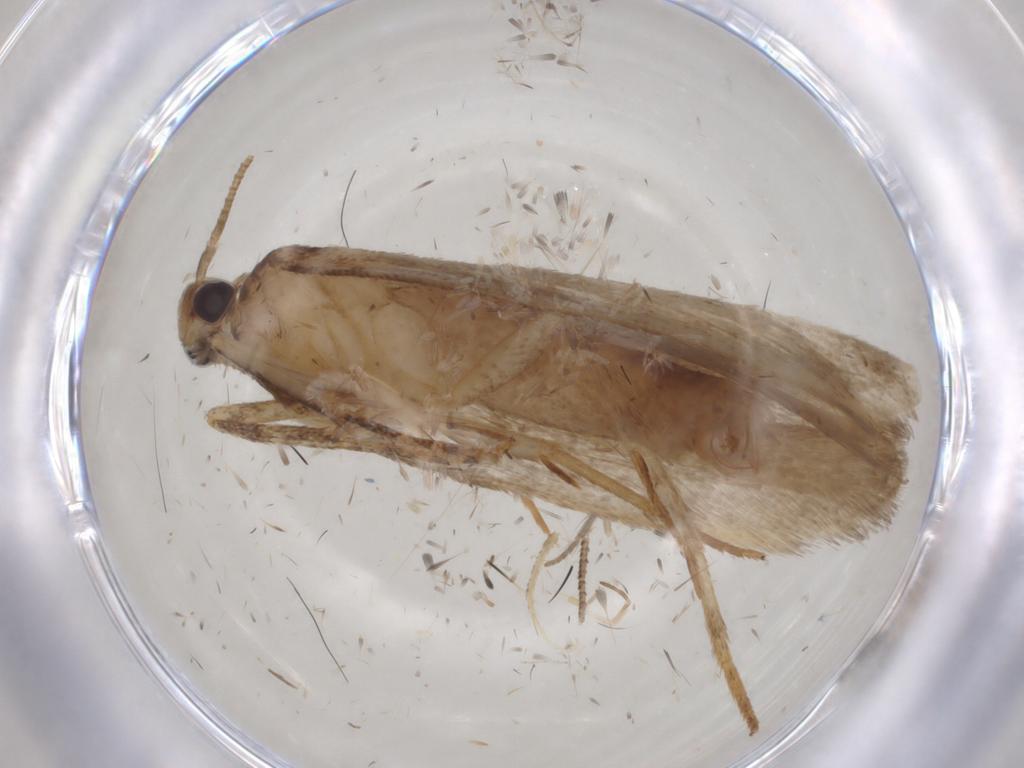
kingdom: Animalia
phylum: Arthropoda
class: Insecta
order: Lepidoptera
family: Gelechiidae
